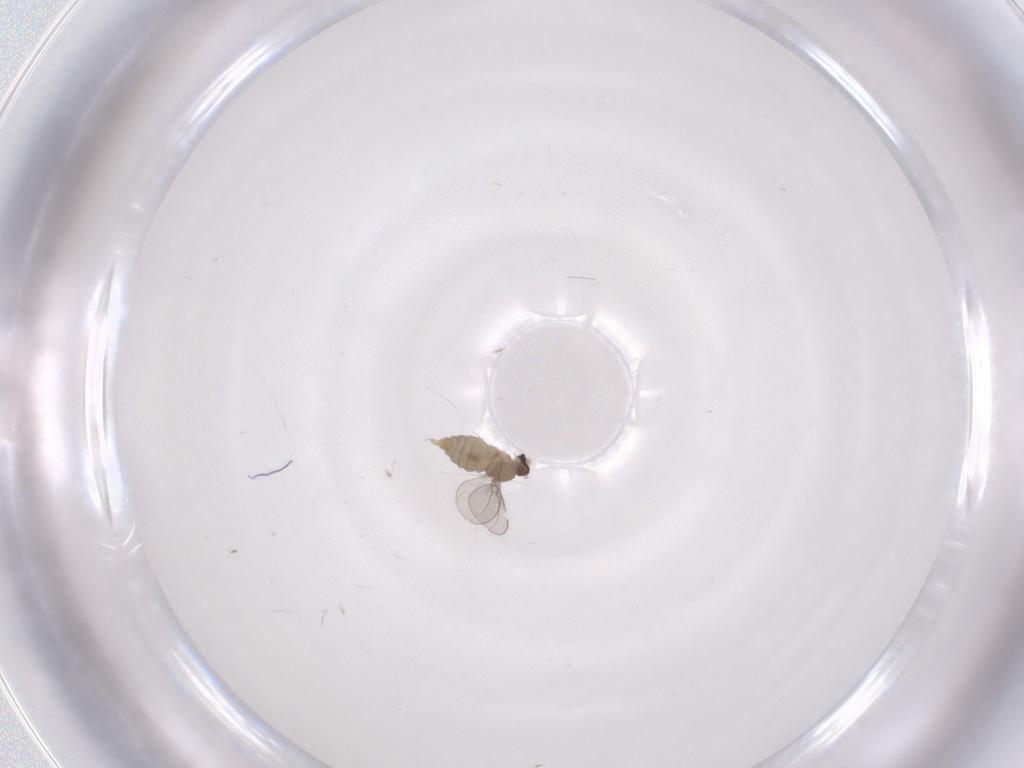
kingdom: Animalia
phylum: Arthropoda
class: Insecta
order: Diptera
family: Cecidomyiidae
